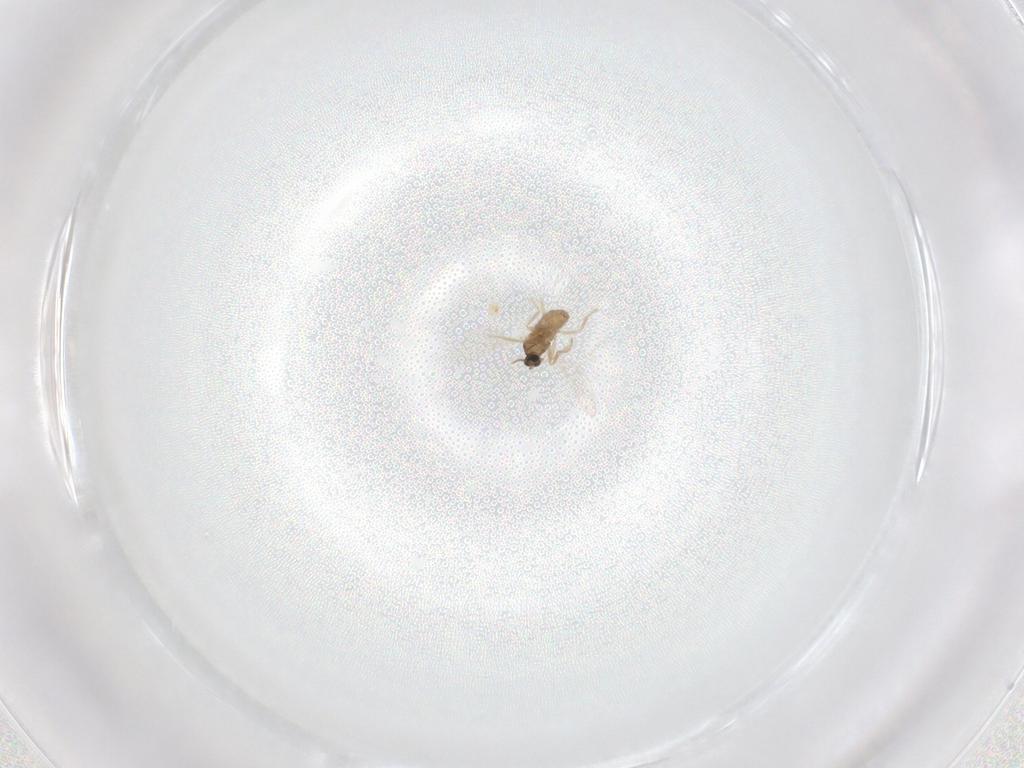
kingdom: Animalia
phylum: Arthropoda
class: Insecta
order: Diptera
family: Cecidomyiidae
